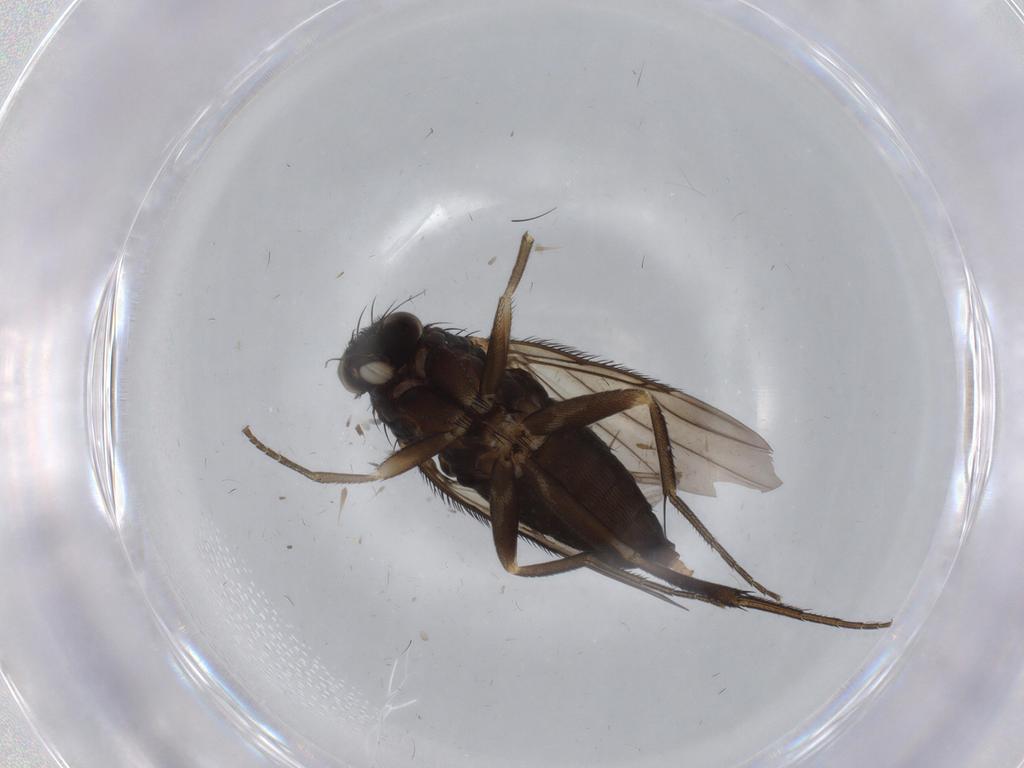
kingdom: Animalia
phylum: Arthropoda
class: Insecta
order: Diptera
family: Phoridae
